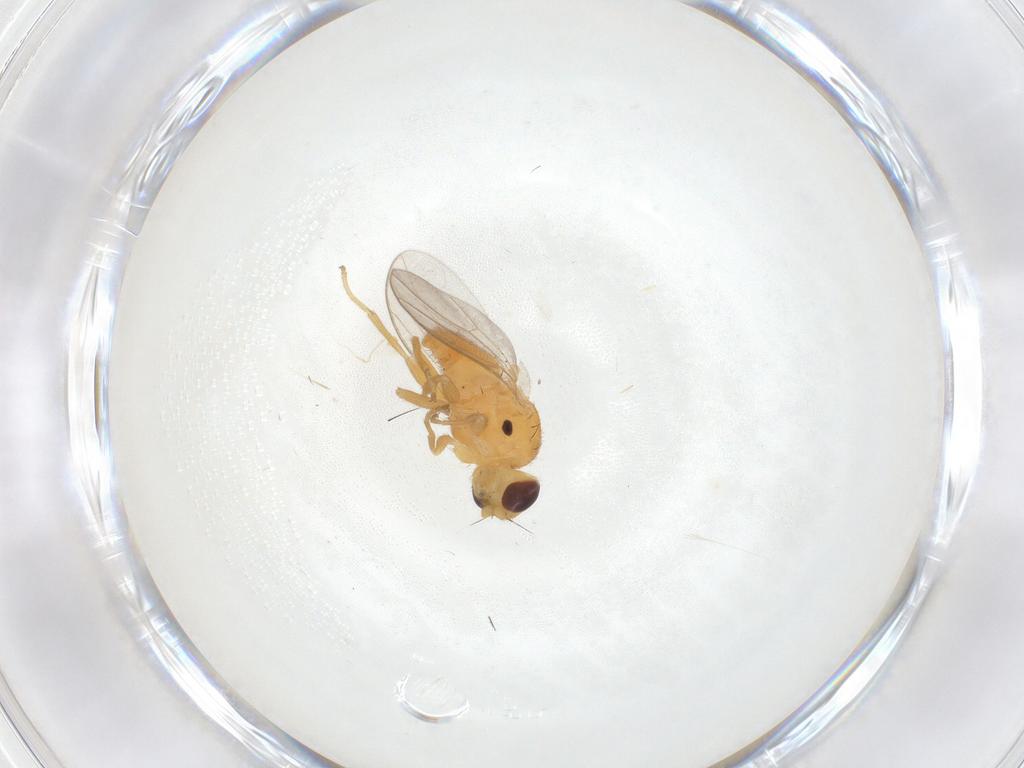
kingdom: Animalia
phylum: Arthropoda
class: Insecta
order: Diptera
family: Chloropidae
